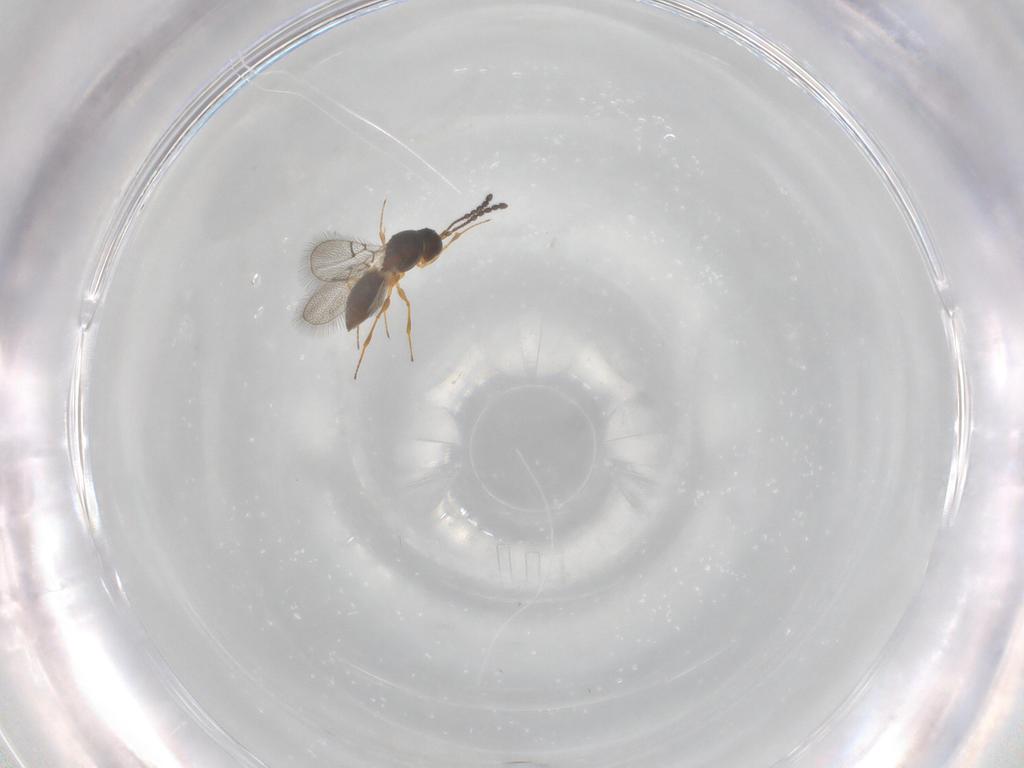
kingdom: Animalia
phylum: Arthropoda
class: Insecta
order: Hymenoptera
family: Figitidae
